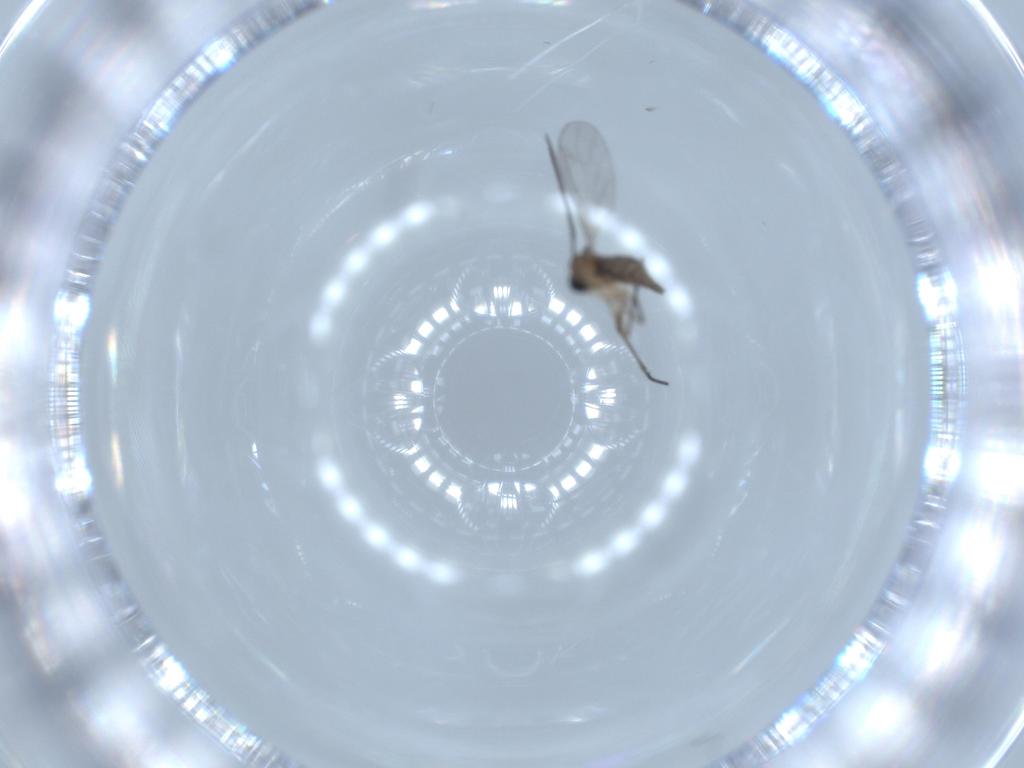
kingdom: Animalia
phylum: Arthropoda
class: Insecta
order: Diptera
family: Sciaridae
